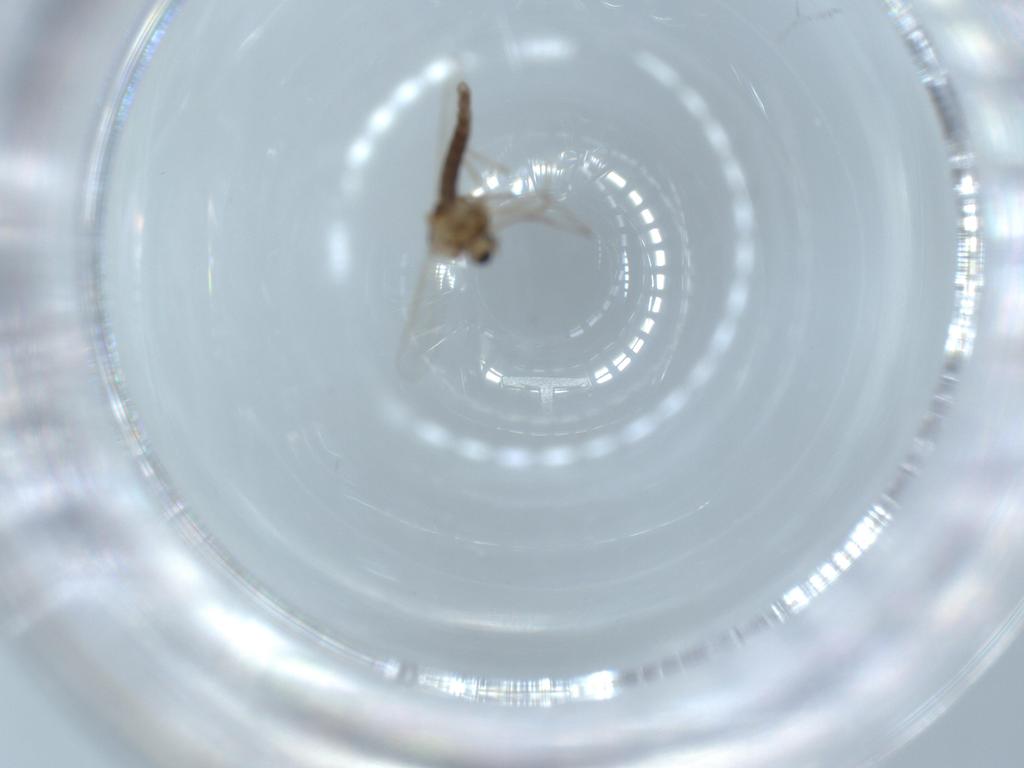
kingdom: Animalia
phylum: Arthropoda
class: Insecta
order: Diptera
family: Chironomidae
